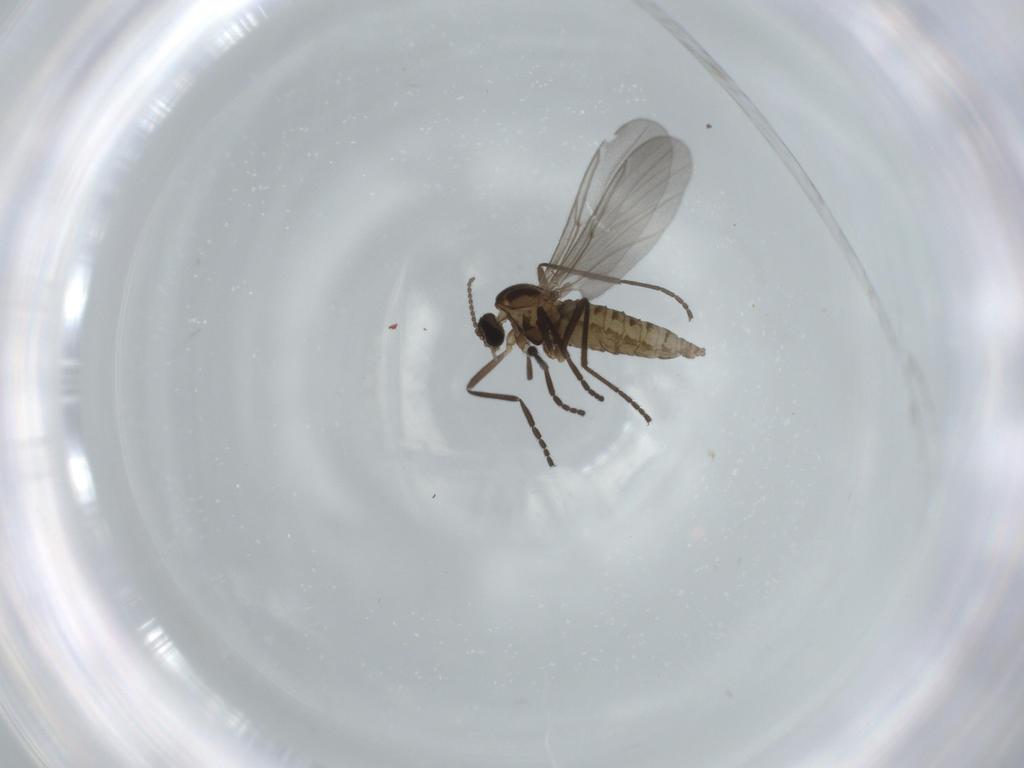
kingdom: Animalia
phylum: Arthropoda
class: Insecta
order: Diptera
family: Cecidomyiidae
